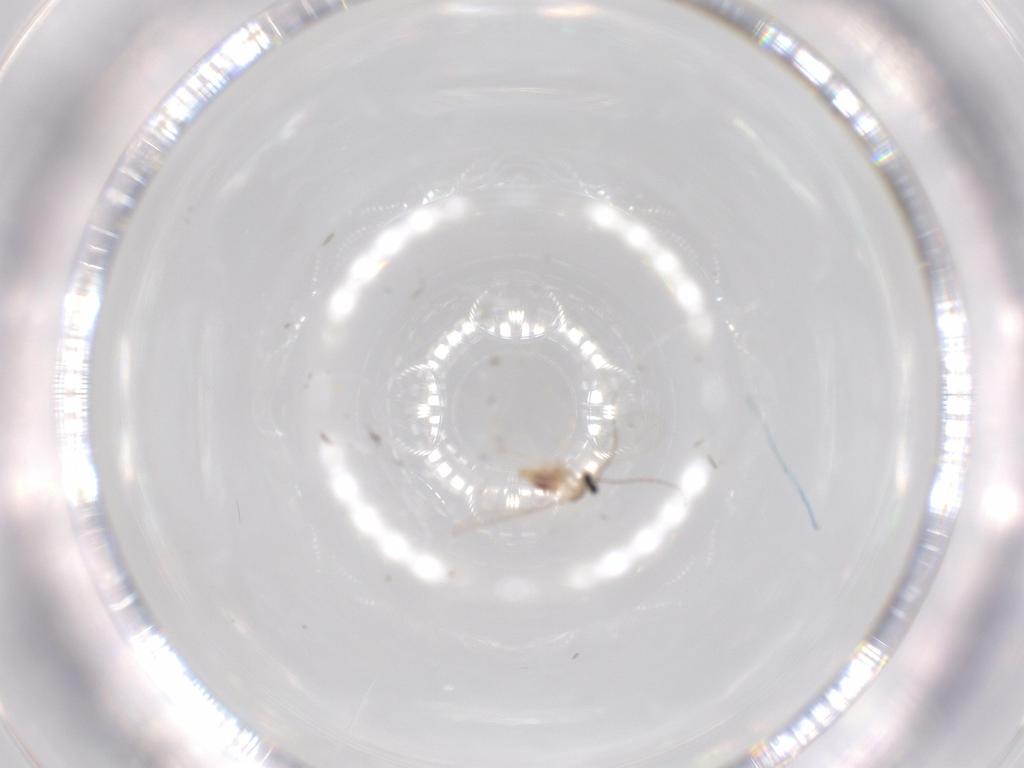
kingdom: Animalia
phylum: Arthropoda
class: Insecta
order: Diptera
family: Cecidomyiidae
